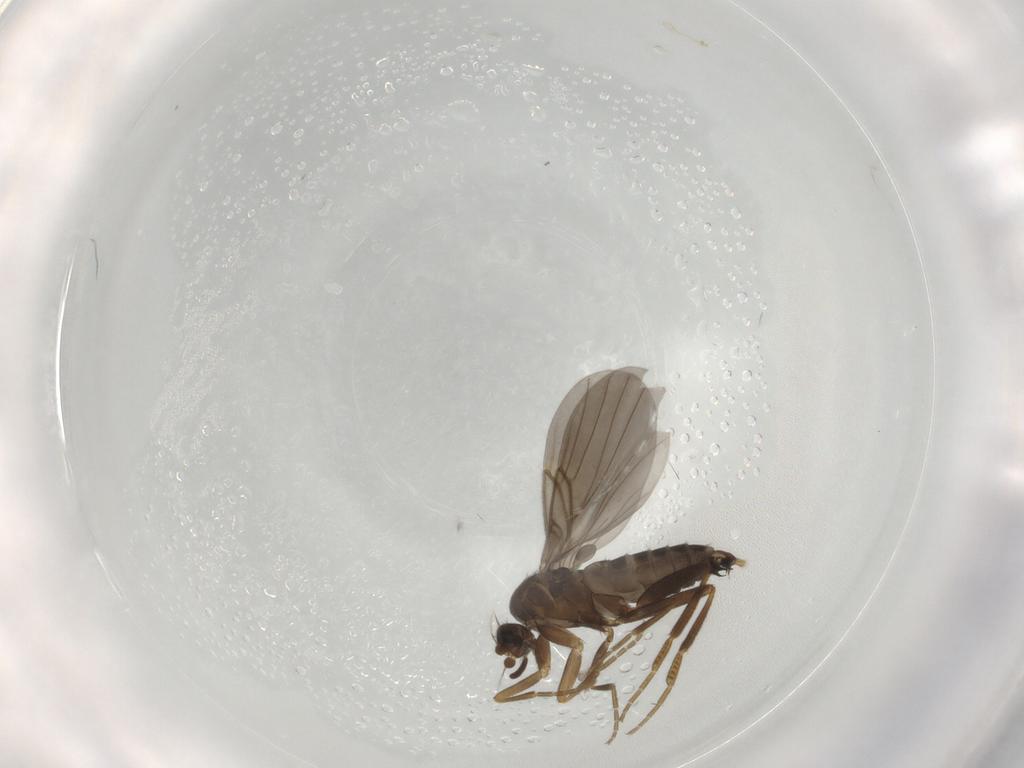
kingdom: Animalia
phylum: Arthropoda
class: Insecta
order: Diptera
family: Phoridae
